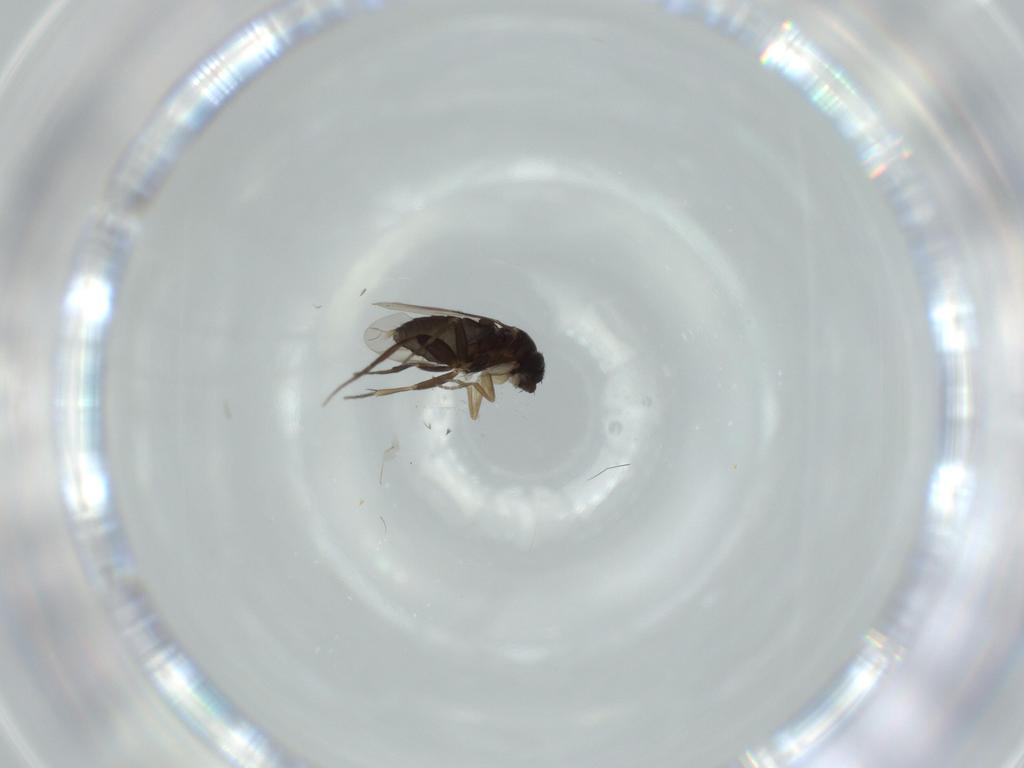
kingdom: Animalia
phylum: Arthropoda
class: Insecta
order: Diptera
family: Phoridae
